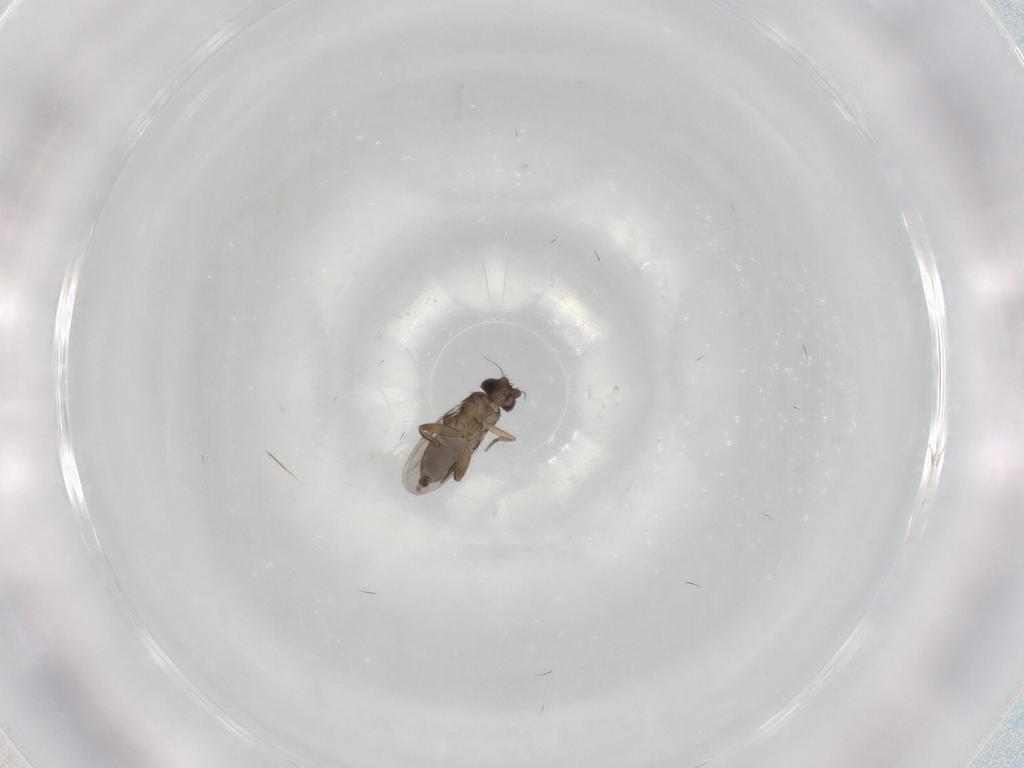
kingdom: Animalia
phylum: Arthropoda
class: Insecta
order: Diptera
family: Phoridae
